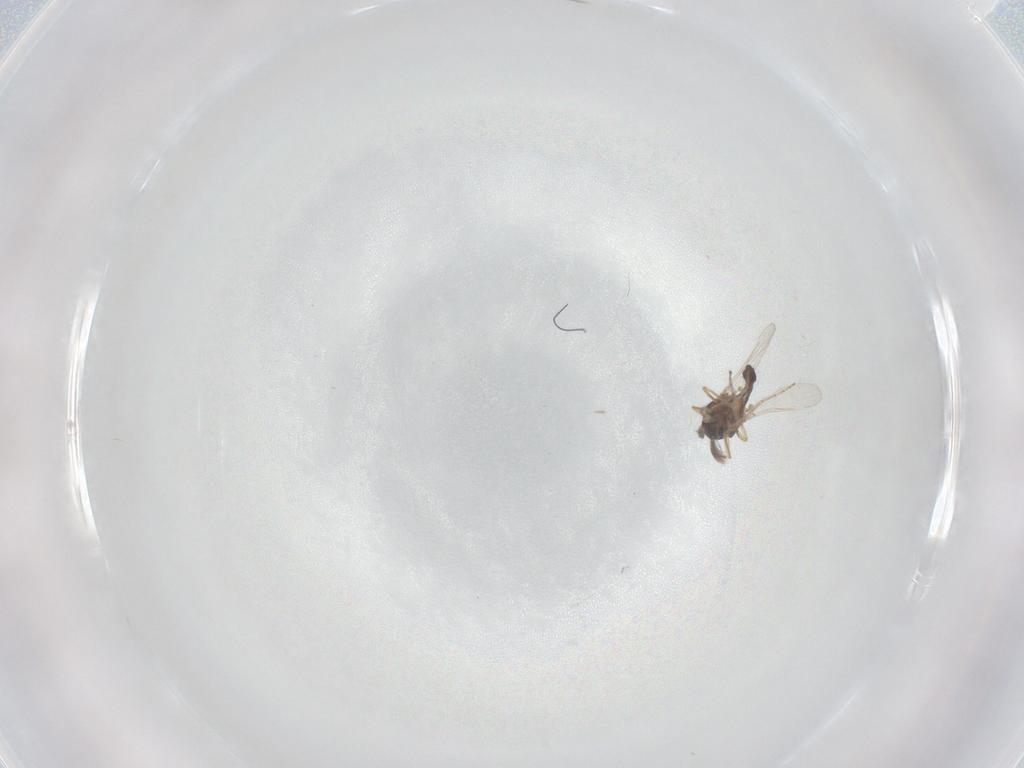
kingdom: Animalia
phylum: Arthropoda
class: Insecta
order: Diptera
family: Ceratopogonidae
